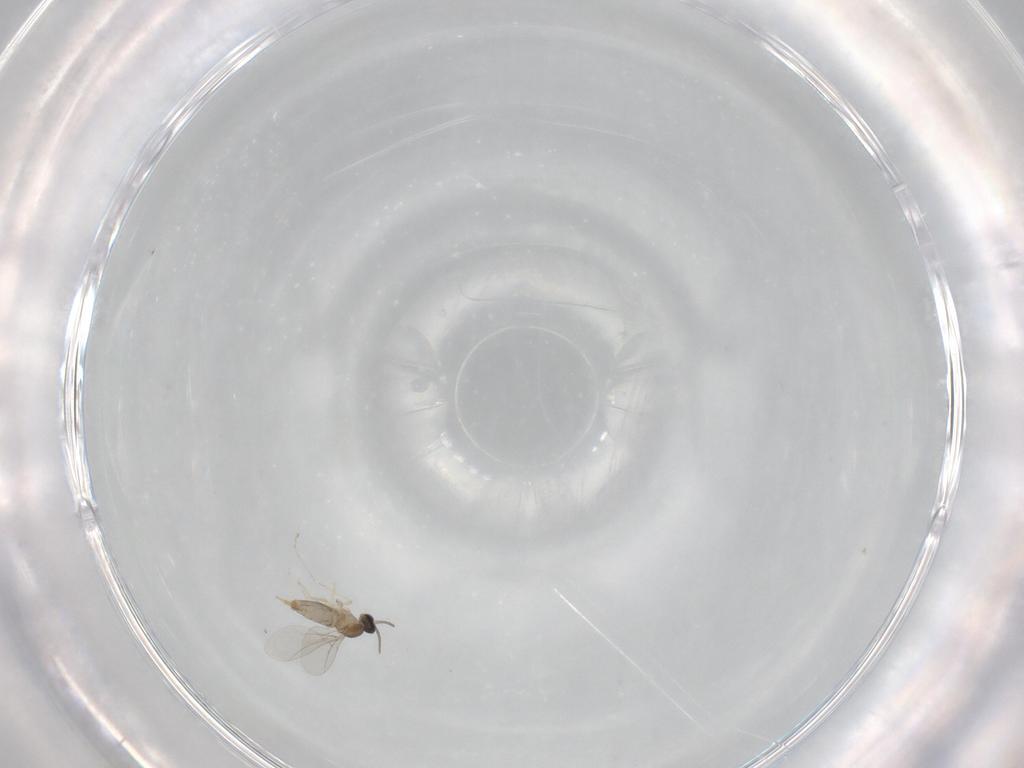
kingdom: Animalia
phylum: Arthropoda
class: Insecta
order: Diptera
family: Cecidomyiidae
